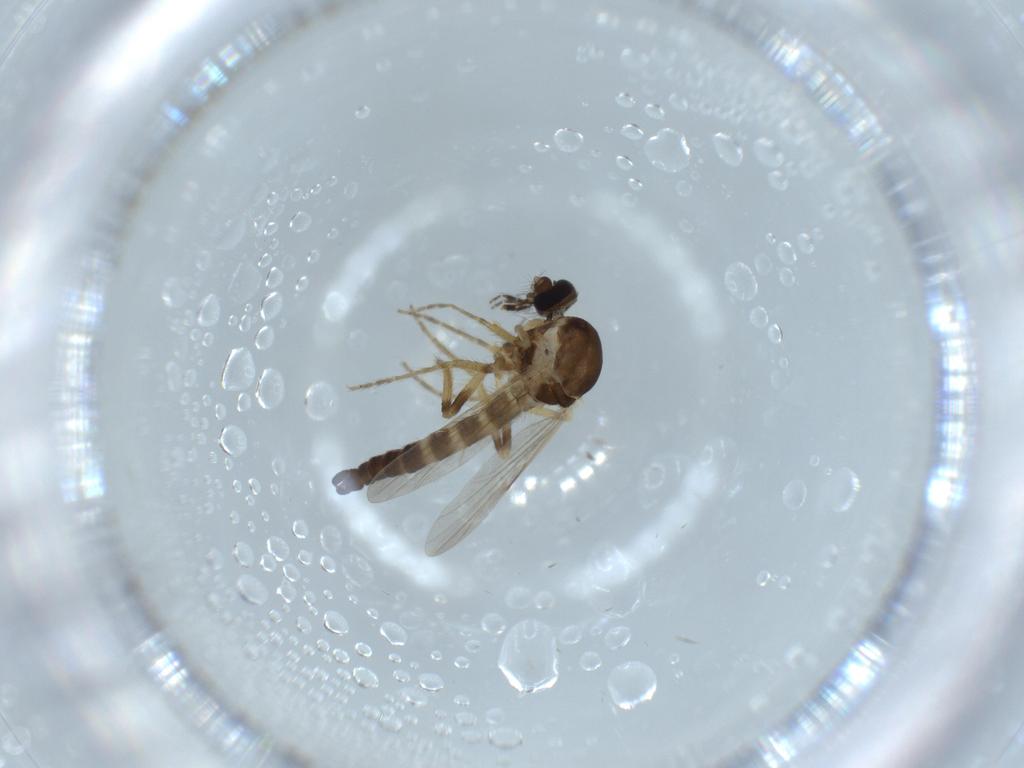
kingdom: Animalia
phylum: Arthropoda
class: Insecta
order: Diptera
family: Ceratopogonidae
